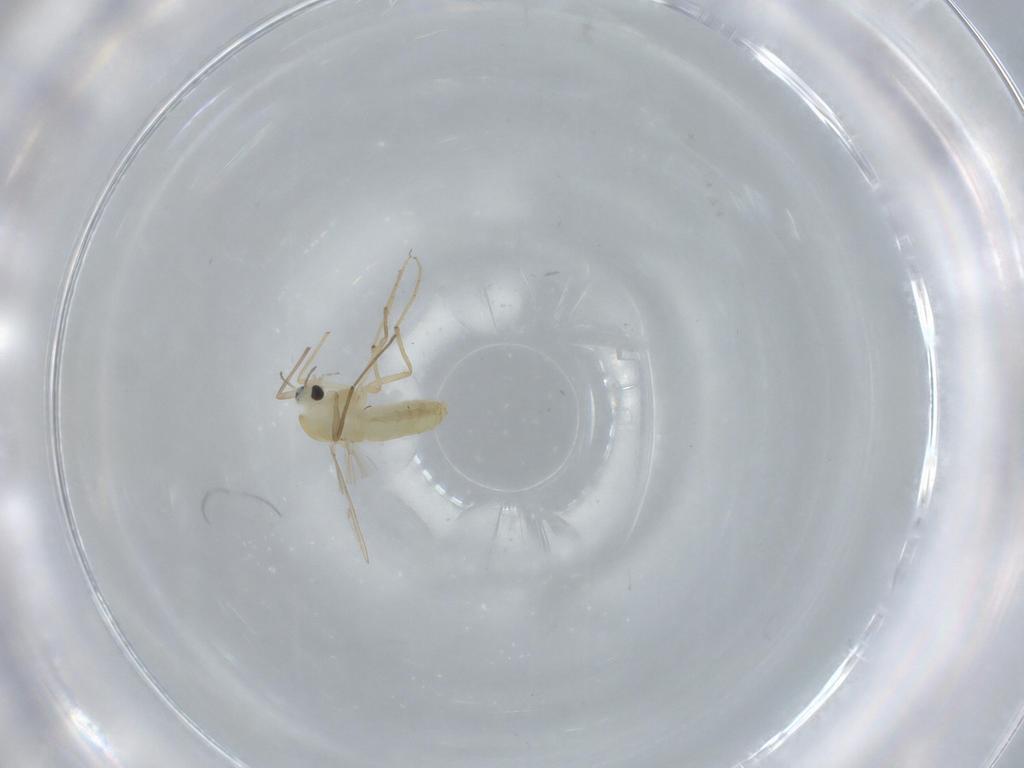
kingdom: Animalia
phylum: Arthropoda
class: Insecta
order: Diptera
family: Chironomidae
